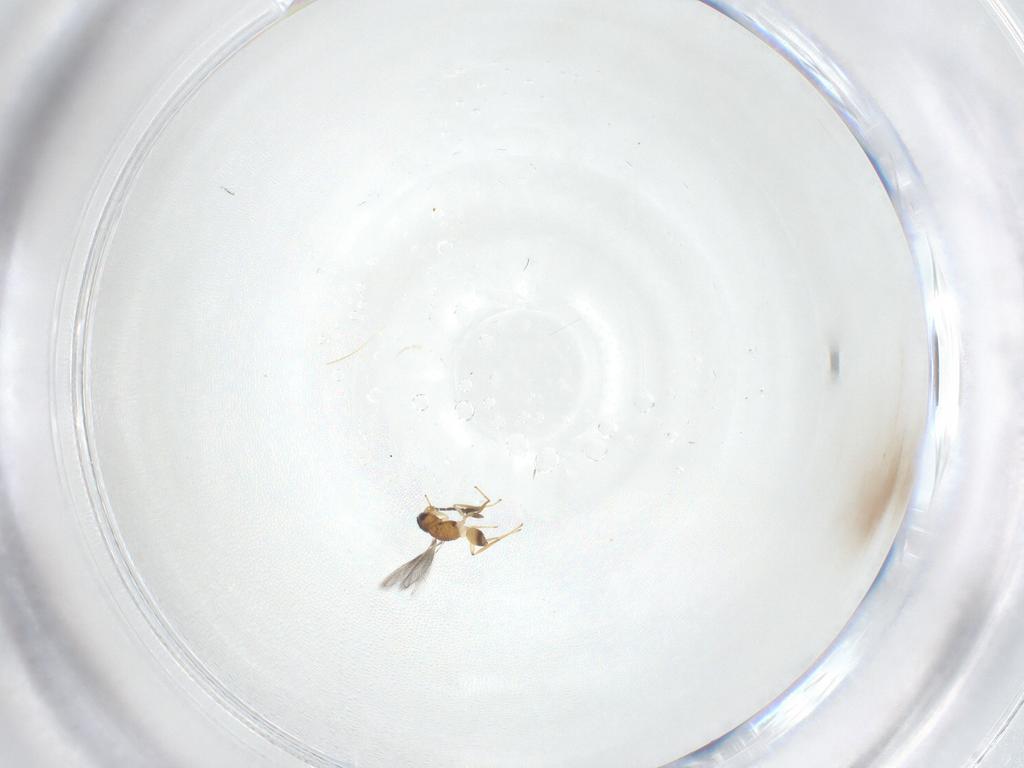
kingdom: Animalia
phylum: Arthropoda
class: Insecta
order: Hymenoptera
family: Mymaridae
